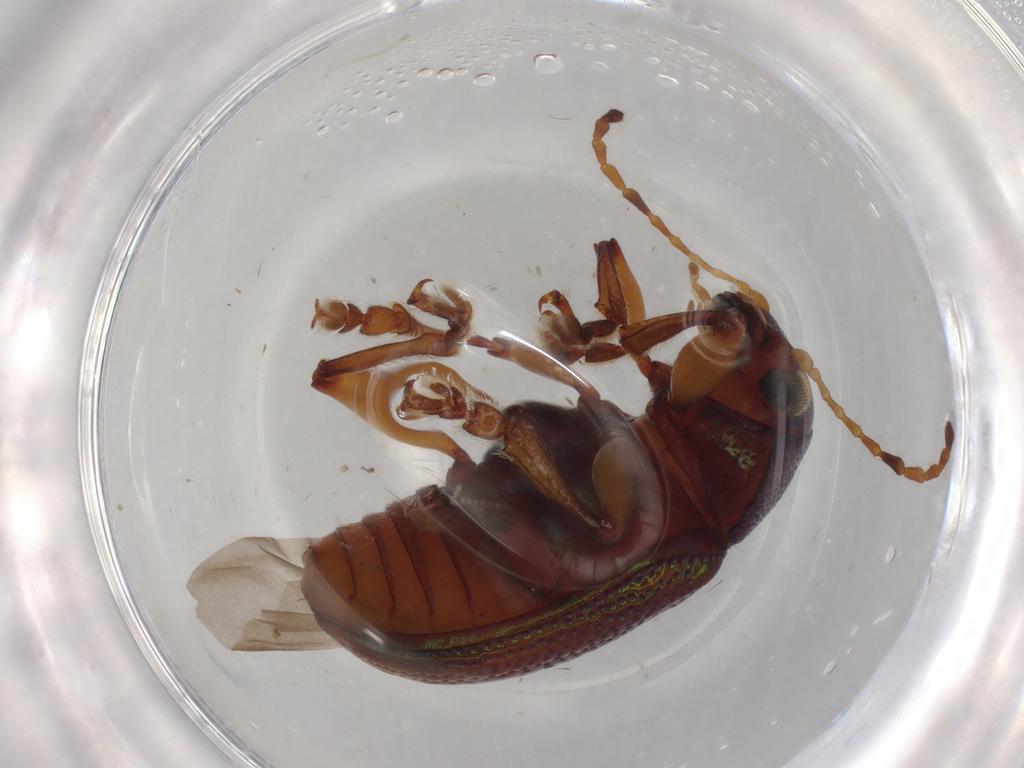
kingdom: Animalia
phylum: Arthropoda
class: Insecta
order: Coleoptera
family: Chrysomelidae
